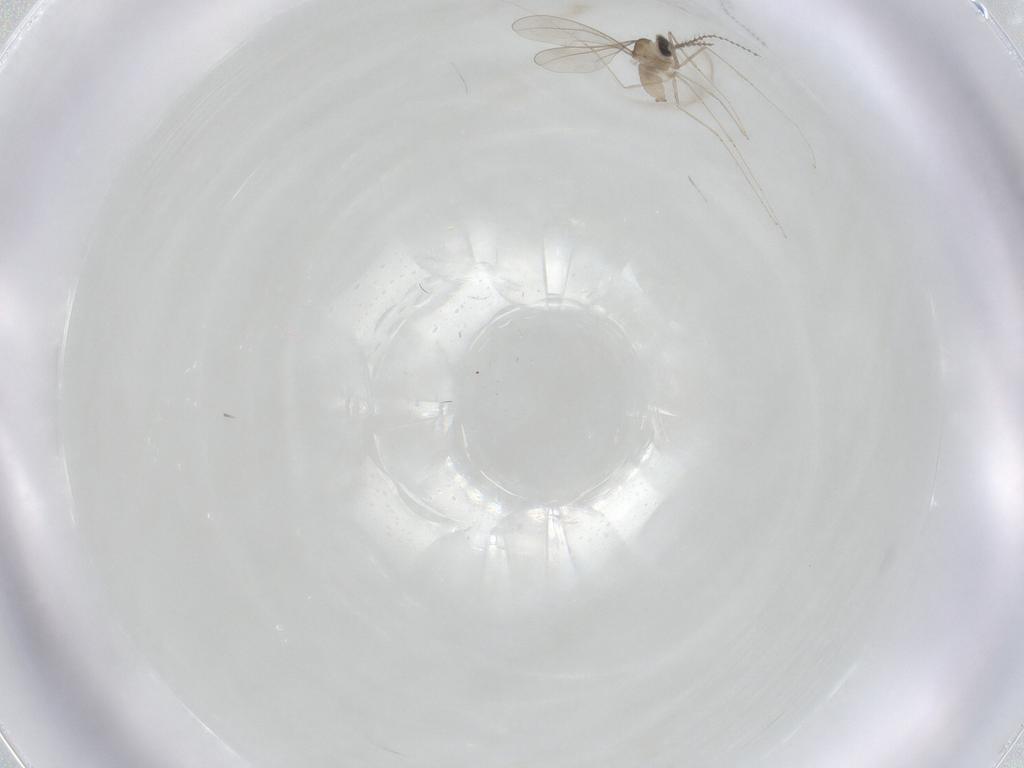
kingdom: Animalia
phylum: Arthropoda
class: Insecta
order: Diptera
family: Cecidomyiidae
